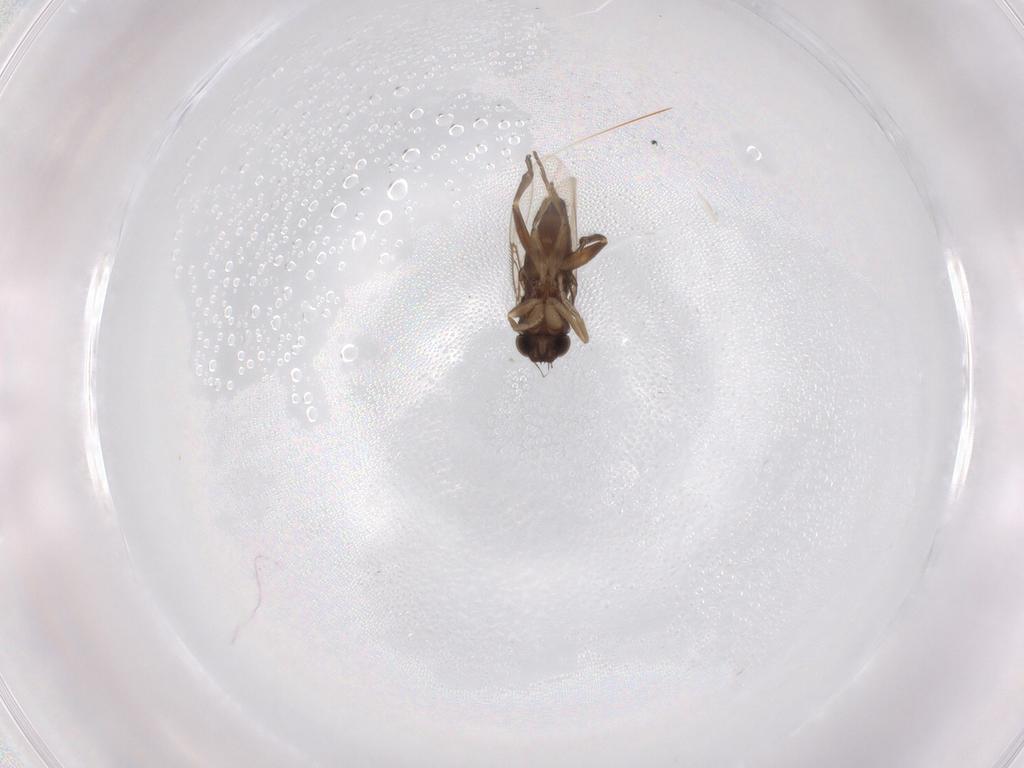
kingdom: Animalia
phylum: Arthropoda
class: Insecta
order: Diptera
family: Phoridae
